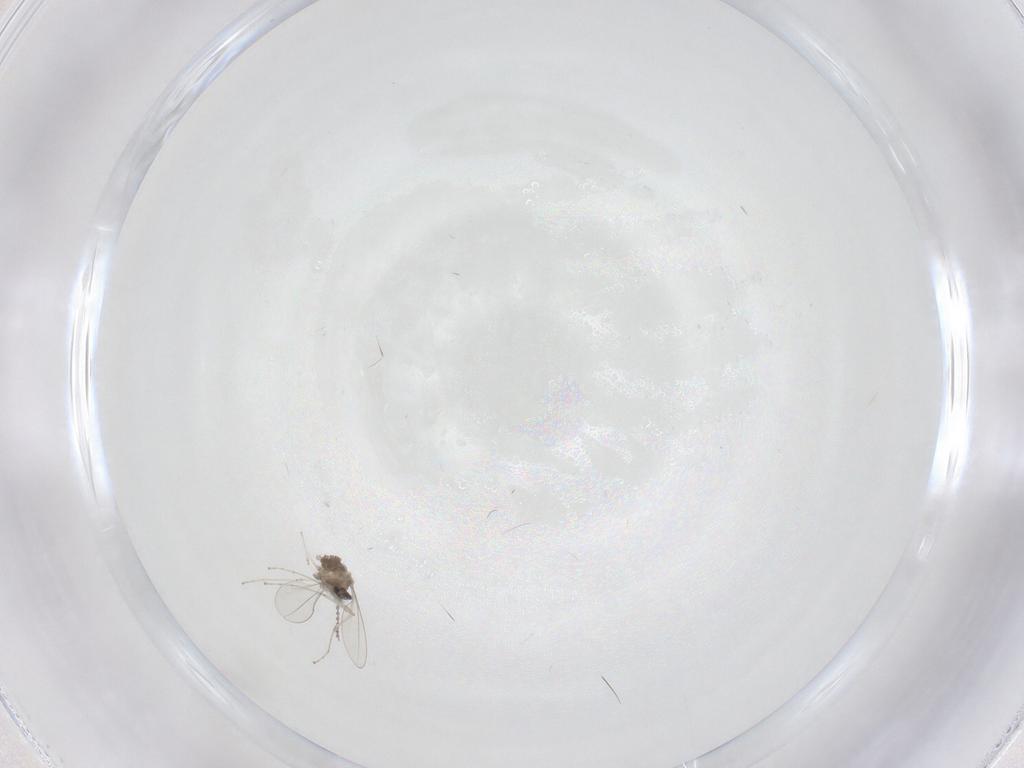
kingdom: Animalia
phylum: Arthropoda
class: Insecta
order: Diptera
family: Cecidomyiidae
